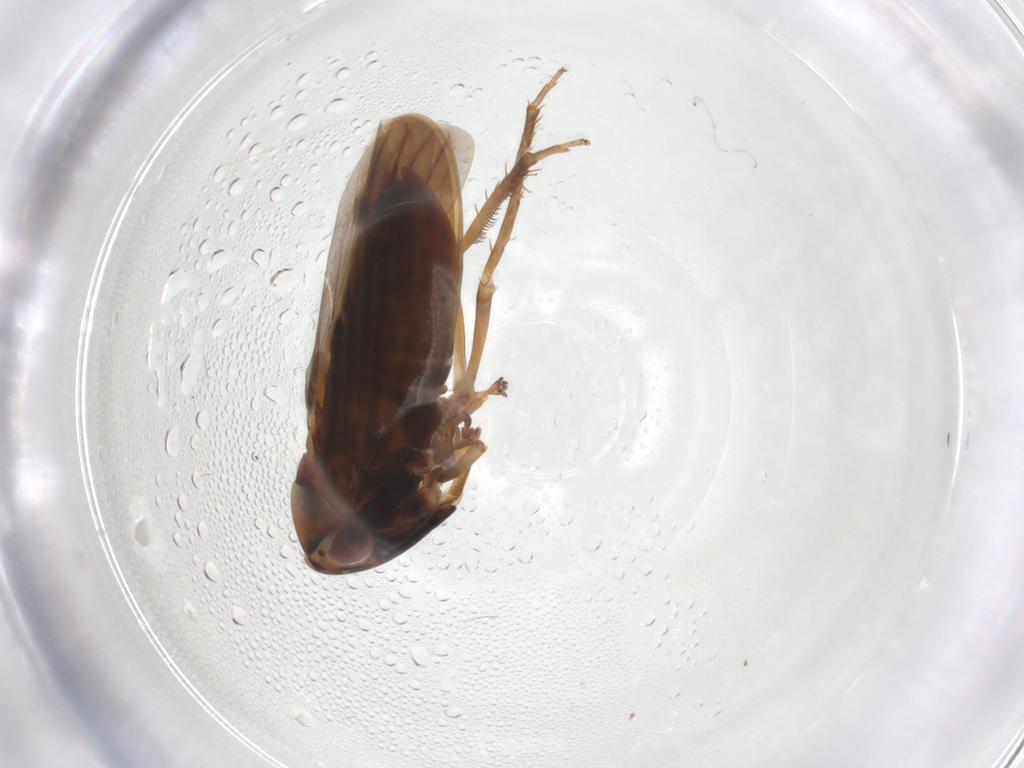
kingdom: Animalia
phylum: Arthropoda
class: Insecta
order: Hemiptera
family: Cicadellidae
